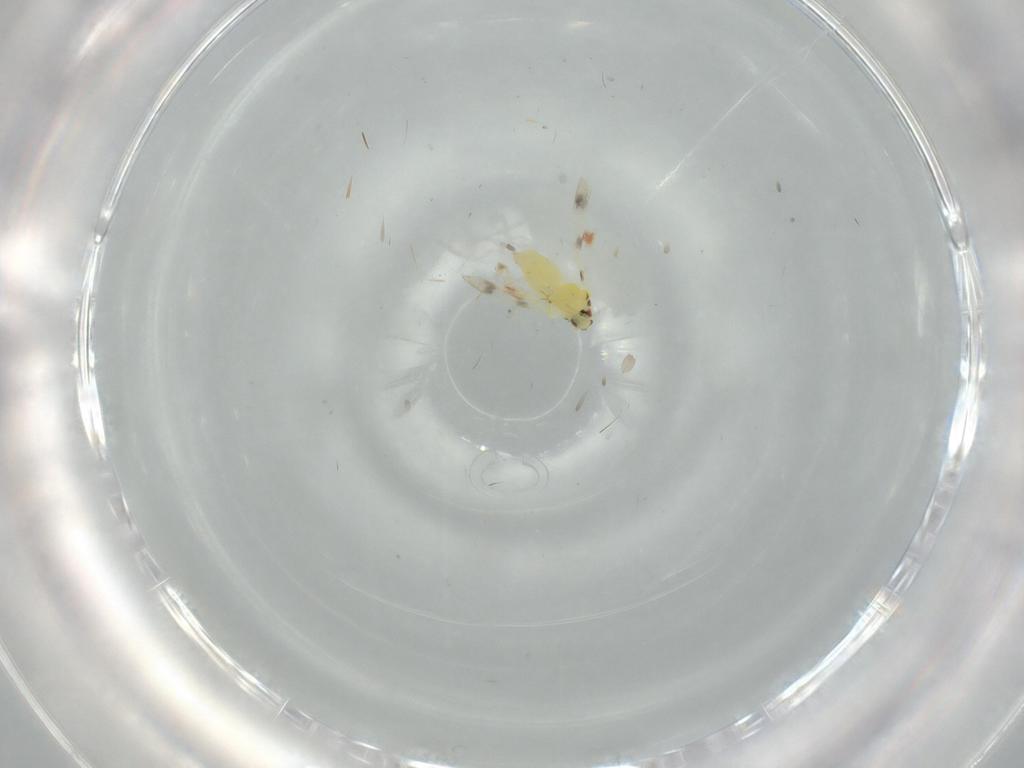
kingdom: Animalia
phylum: Arthropoda
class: Insecta
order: Hemiptera
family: Aleyrodidae
